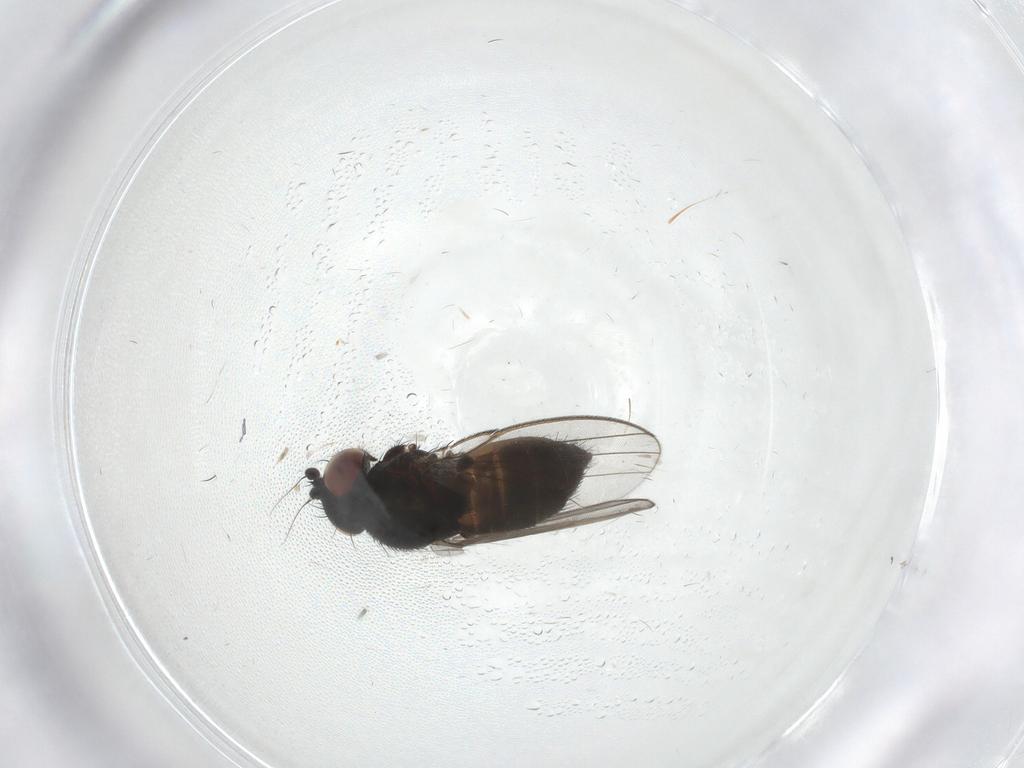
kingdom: Animalia
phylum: Arthropoda
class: Insecta
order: Diptera
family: Milichiidae
